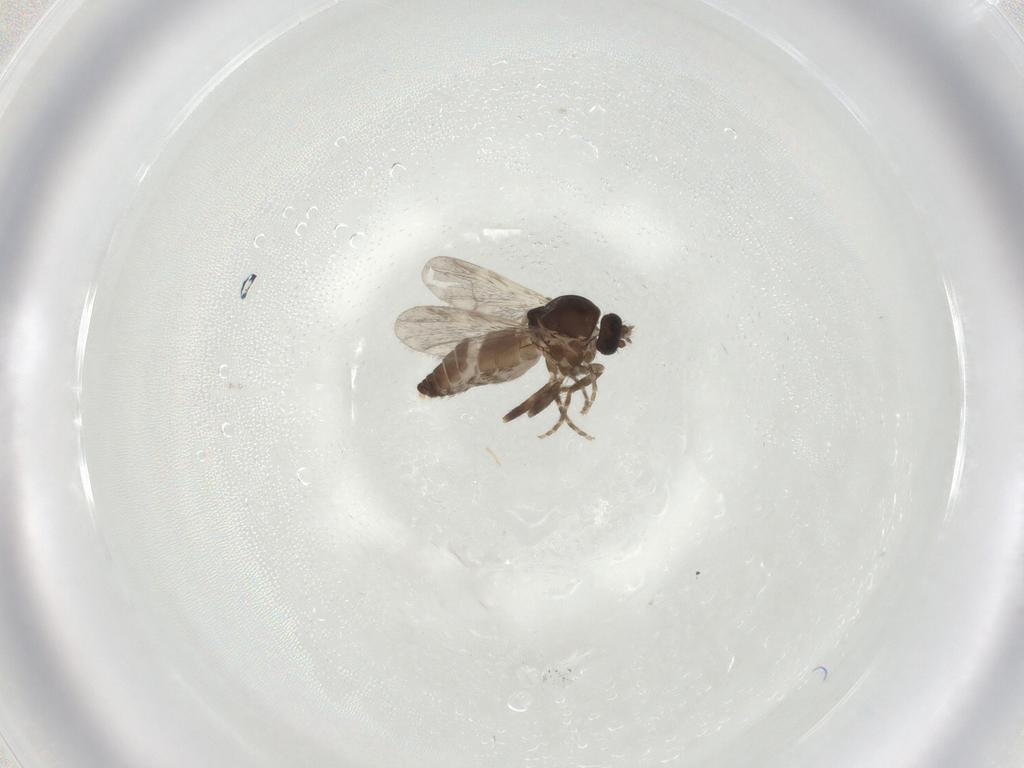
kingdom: Animalia
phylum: Arthropoda
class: Insecta
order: Diptera
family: Ceratopogonidae
